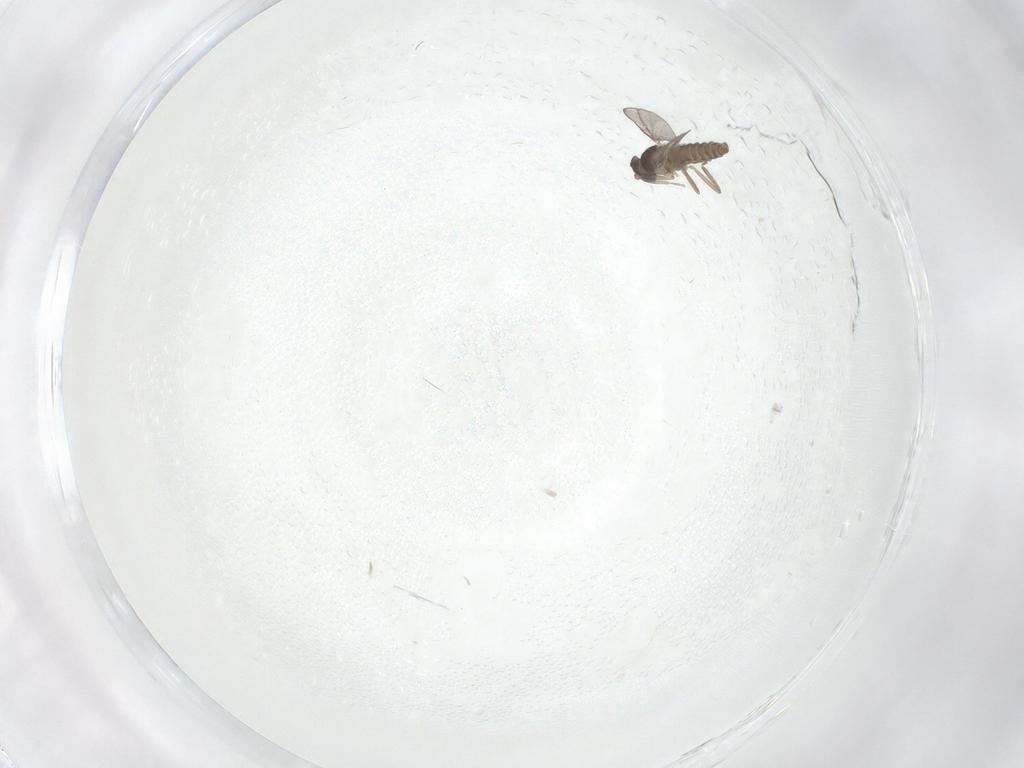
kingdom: Animalia
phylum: Arthropoda
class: Insecta
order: Diptera
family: Cecidomyiidae
